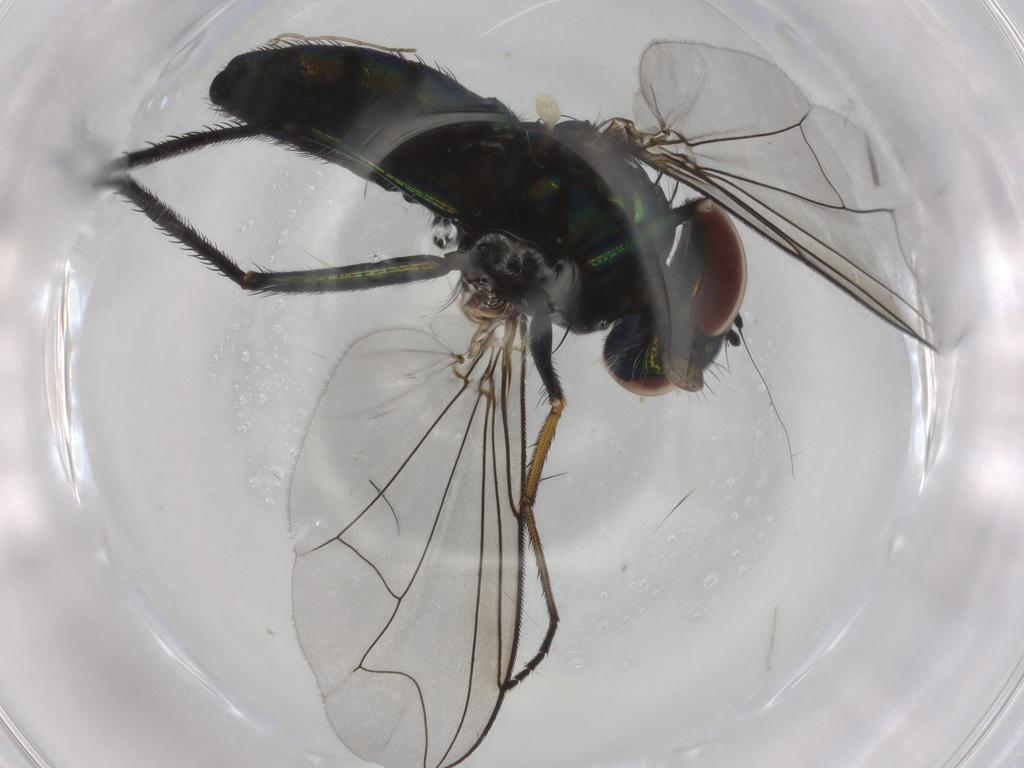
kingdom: Animalia
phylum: Arthropoda
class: Insecta
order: Diptera
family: Dolichopodidae
